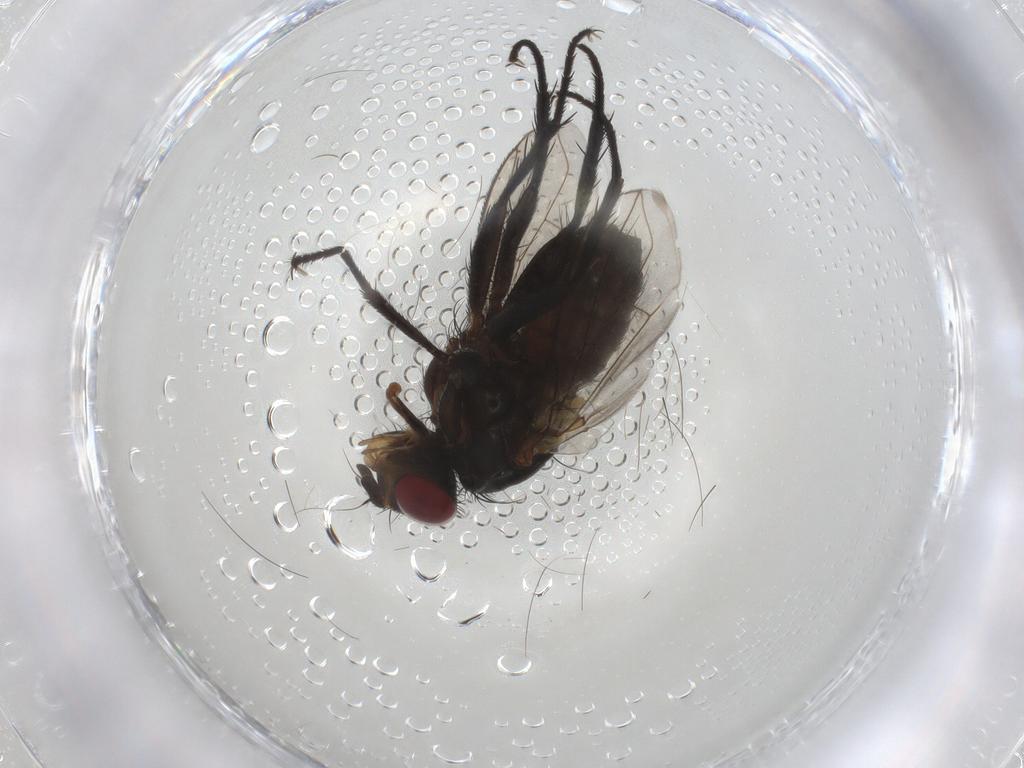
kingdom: Animalia
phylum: Arthropoda
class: Insecta
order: Diptera
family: Calliphoridae
